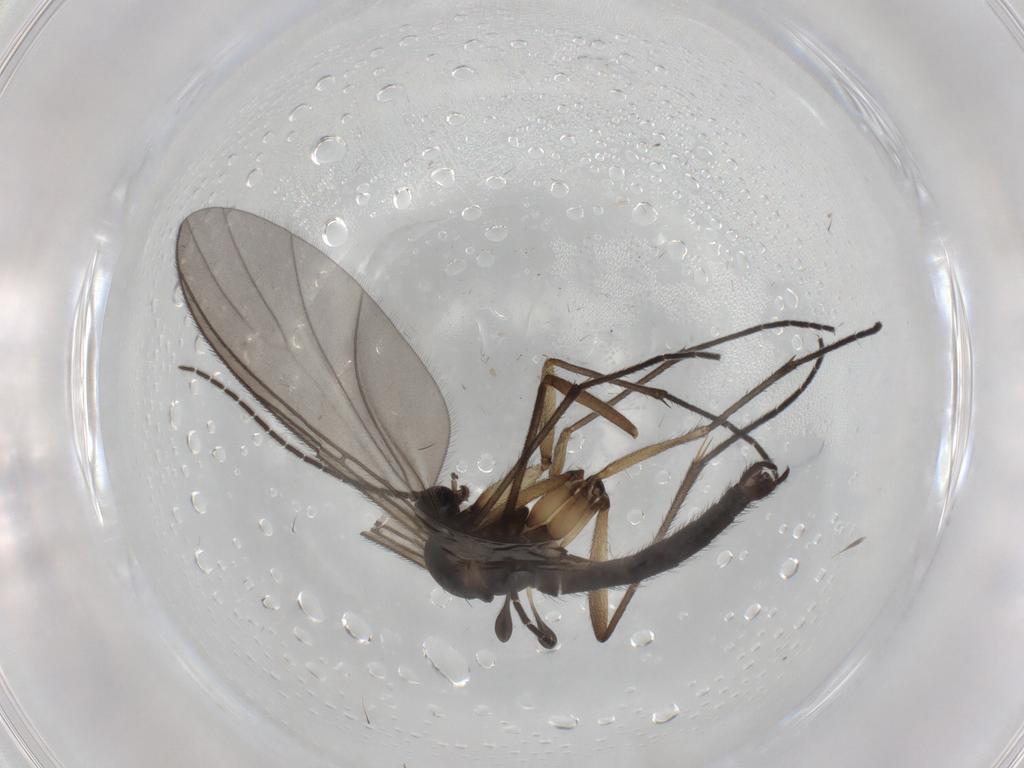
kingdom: Animalia
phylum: Arthropoda
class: Insecta
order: Diptera
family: Sciaridae
